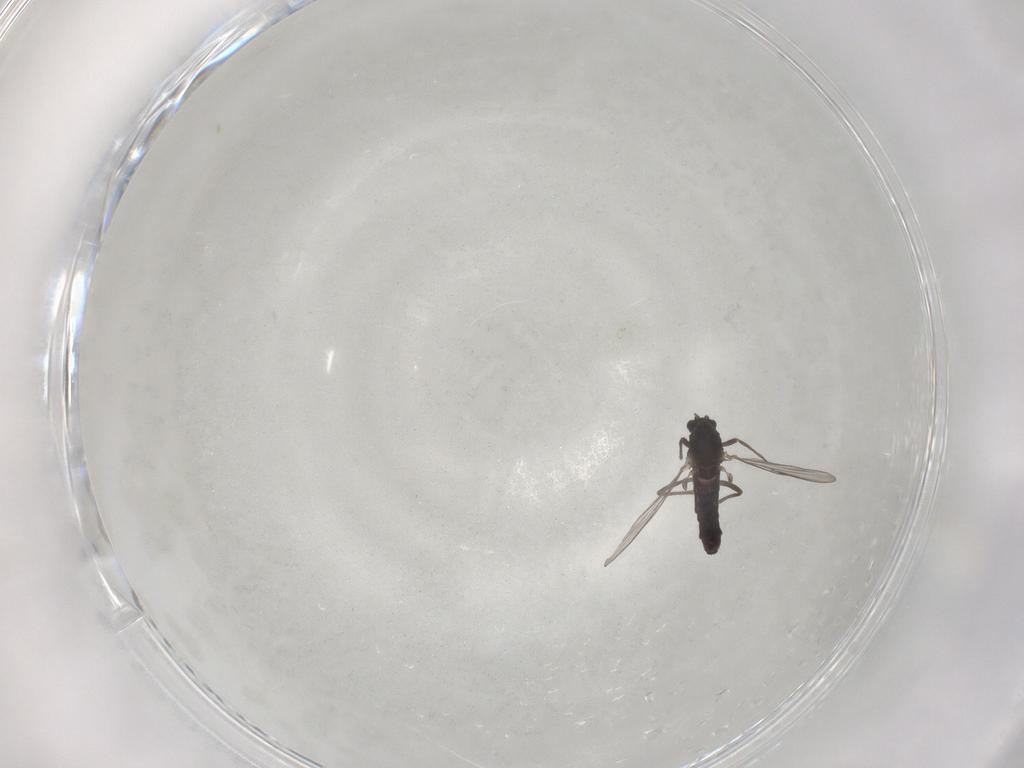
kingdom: Animalia
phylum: Arthropoda
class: Insecta
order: Diptera
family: Chironomidae
